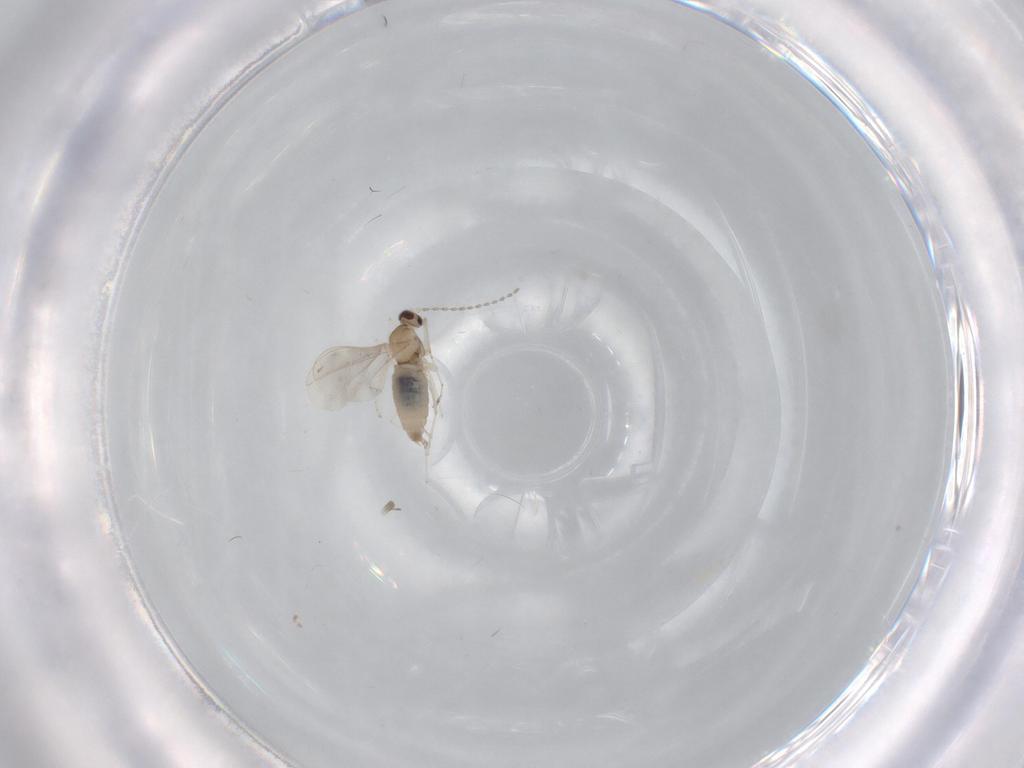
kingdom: Animalia
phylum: Arthropoda
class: Insecta
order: Diptera
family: Cecidomyiidae
